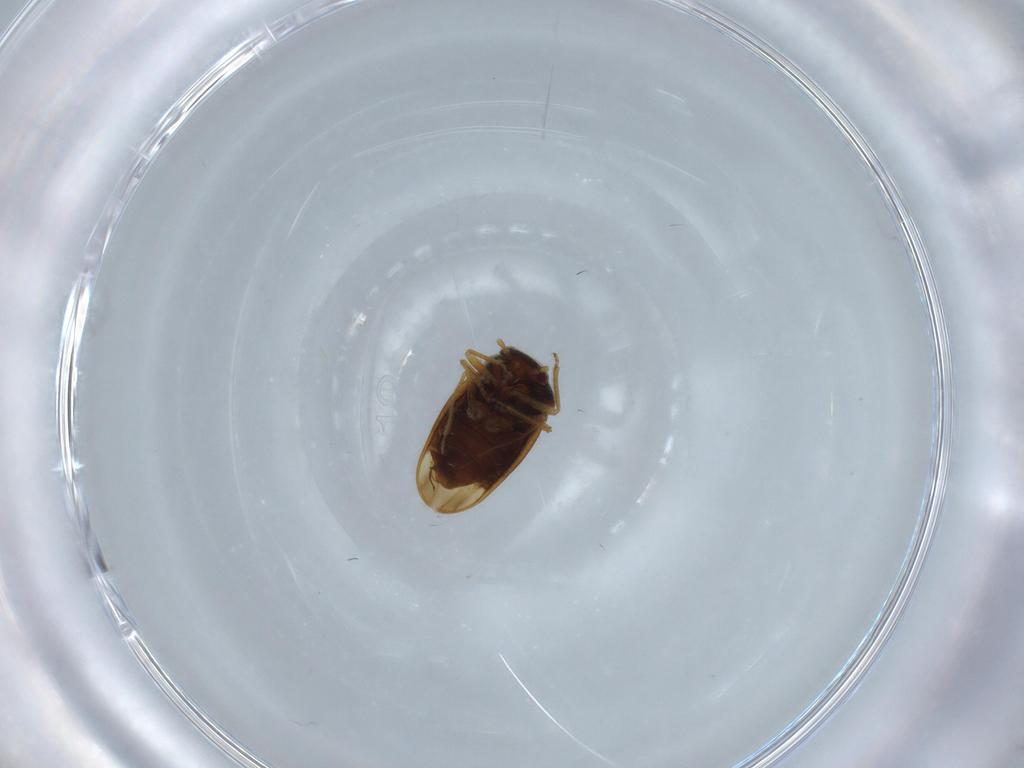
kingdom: Animalia
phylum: Arthropoda
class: Insecta
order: Hemiptera
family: Schizopteridae
